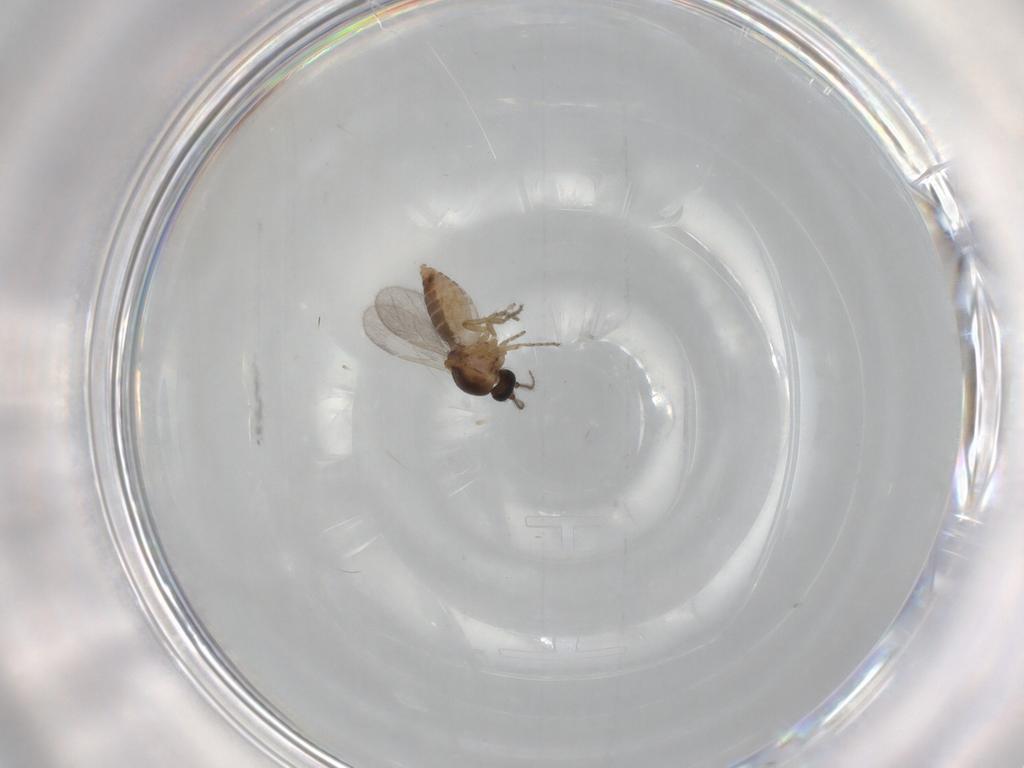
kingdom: Animalia
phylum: Arthropoda
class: Insecta
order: Diptera
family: Ceratopogonidae
